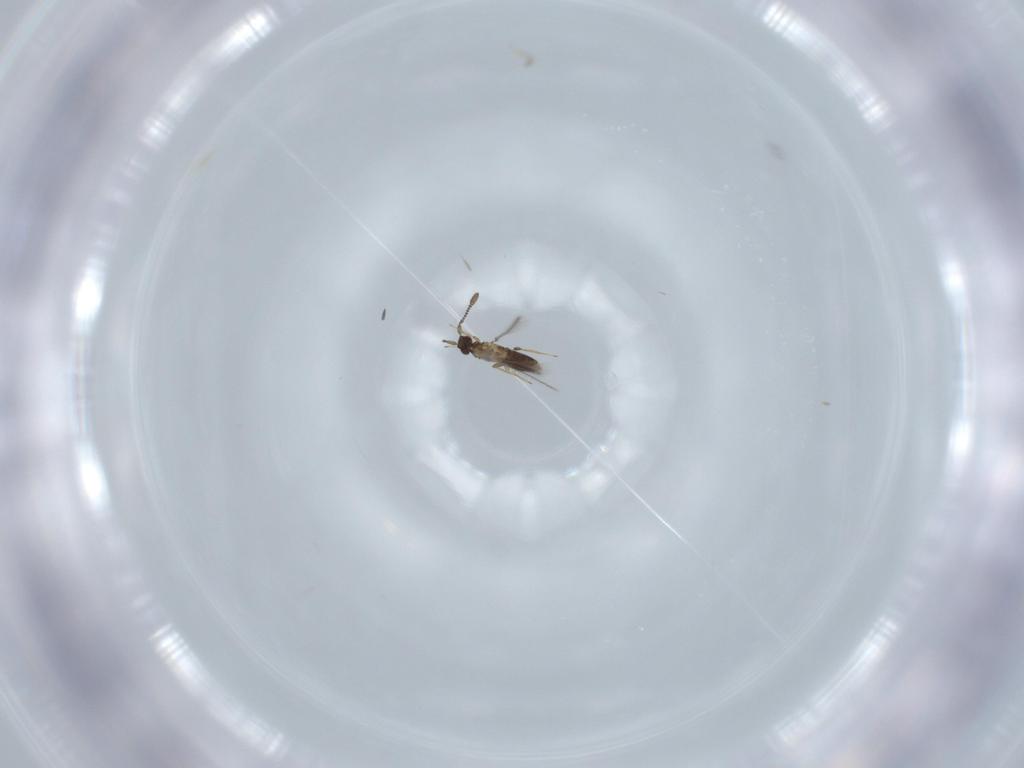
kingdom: Animalia
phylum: Arthropoda
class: Insecta
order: Hymenoptera
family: Mymaridae
